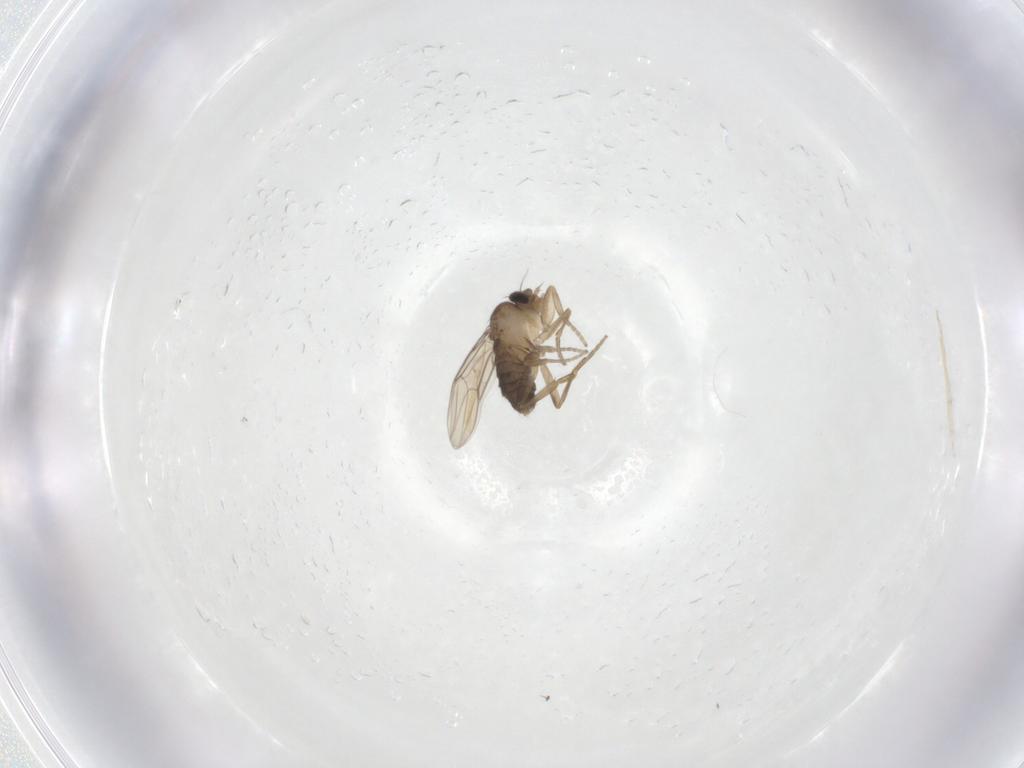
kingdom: Animalia
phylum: Arthropoda
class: Insecta
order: Diptera
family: Phoridae
